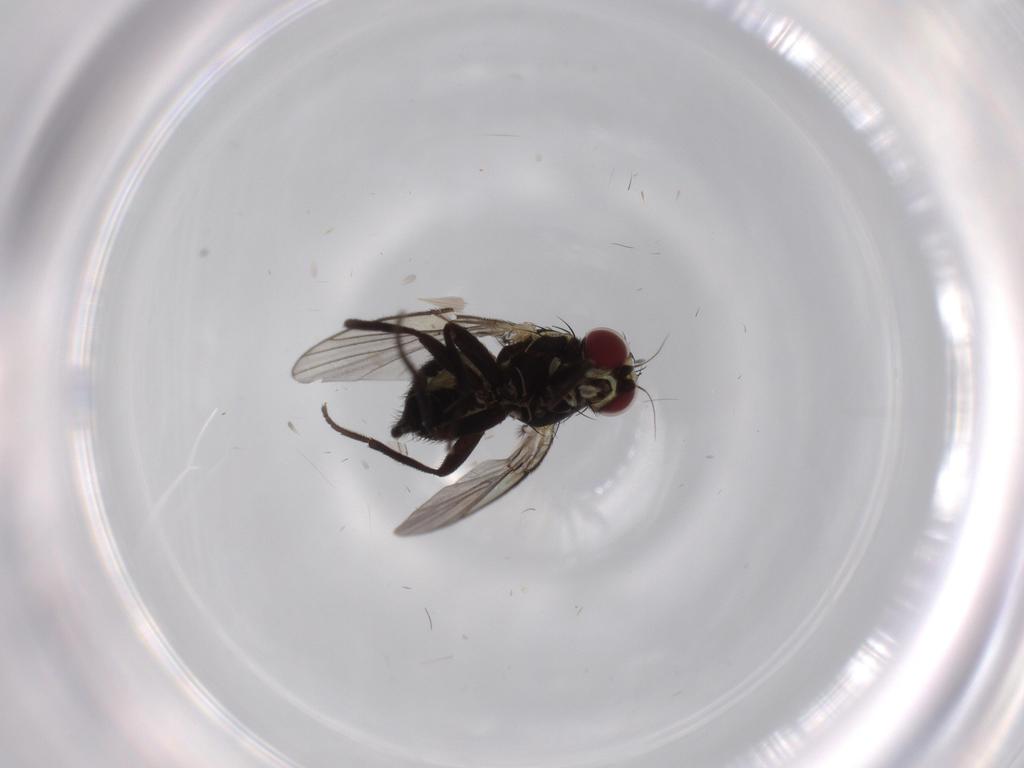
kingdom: Animalia
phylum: Arthropoda
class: Insecta
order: Diptera
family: Agromyzidae
